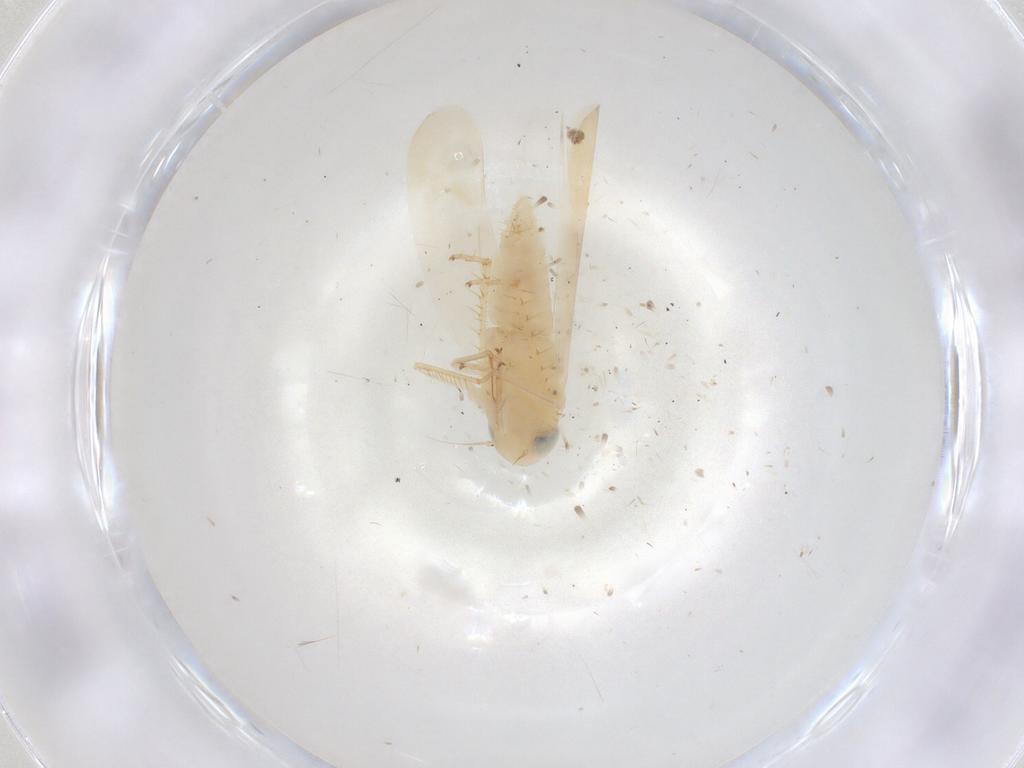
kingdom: Animalia
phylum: Arthropoda
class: Insecta
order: Hemiptera
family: Cicadellidae
